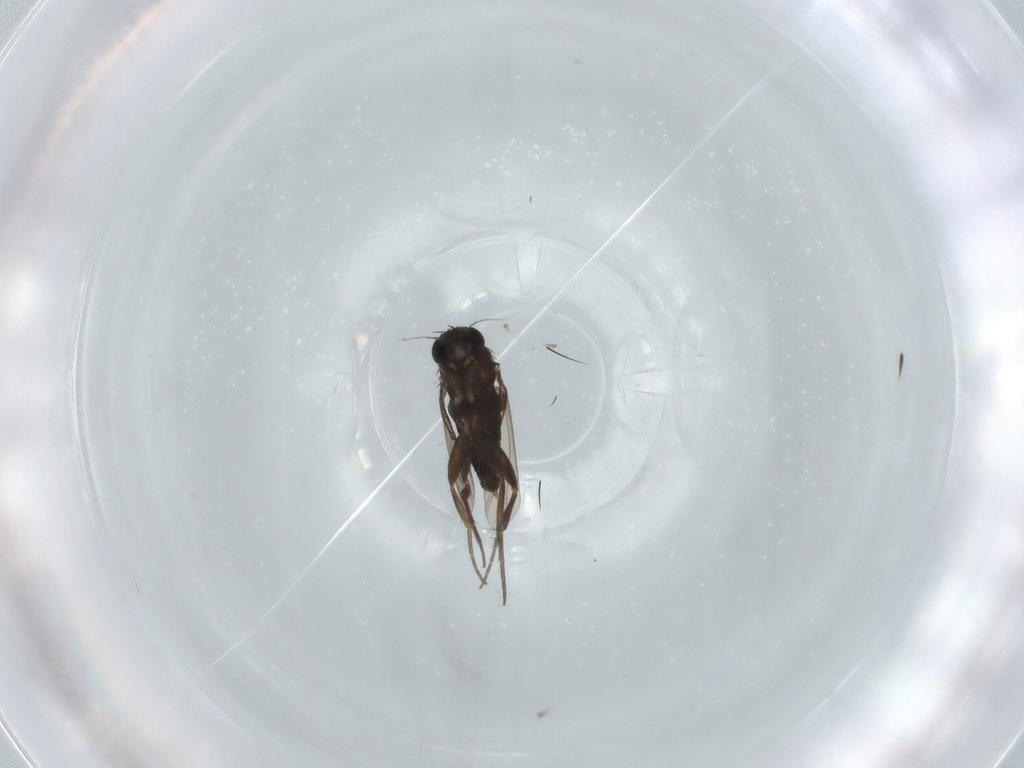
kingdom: Animalia
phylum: Arthropoda
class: Insecta
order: Diptera
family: Phoridae
